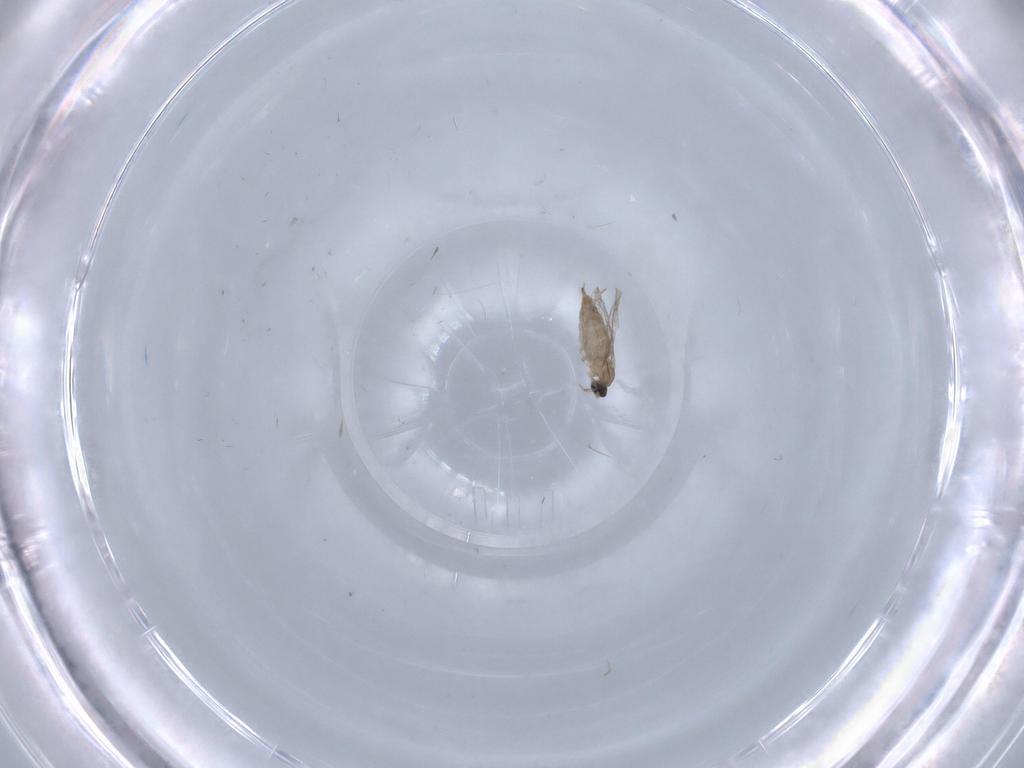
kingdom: Animalia
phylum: Arthropoda
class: Insecta
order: Diptera
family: Cecidomyiidae
